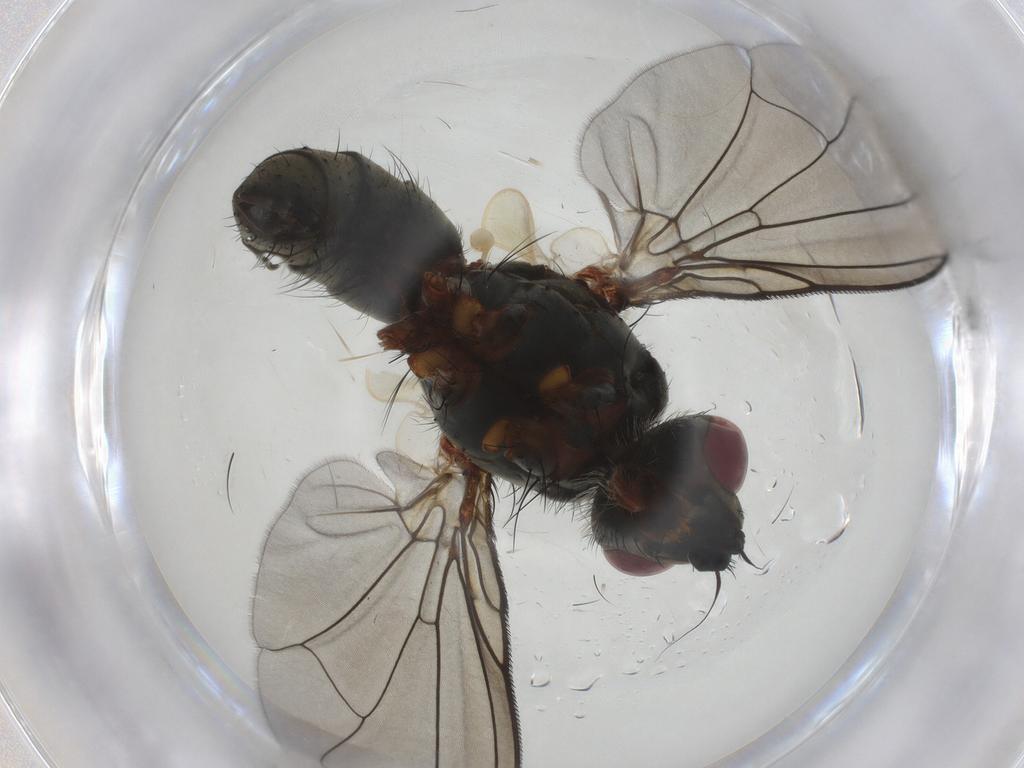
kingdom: Animalia
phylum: Arthropoda
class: Insecta
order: Diptera
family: Tachinidae
